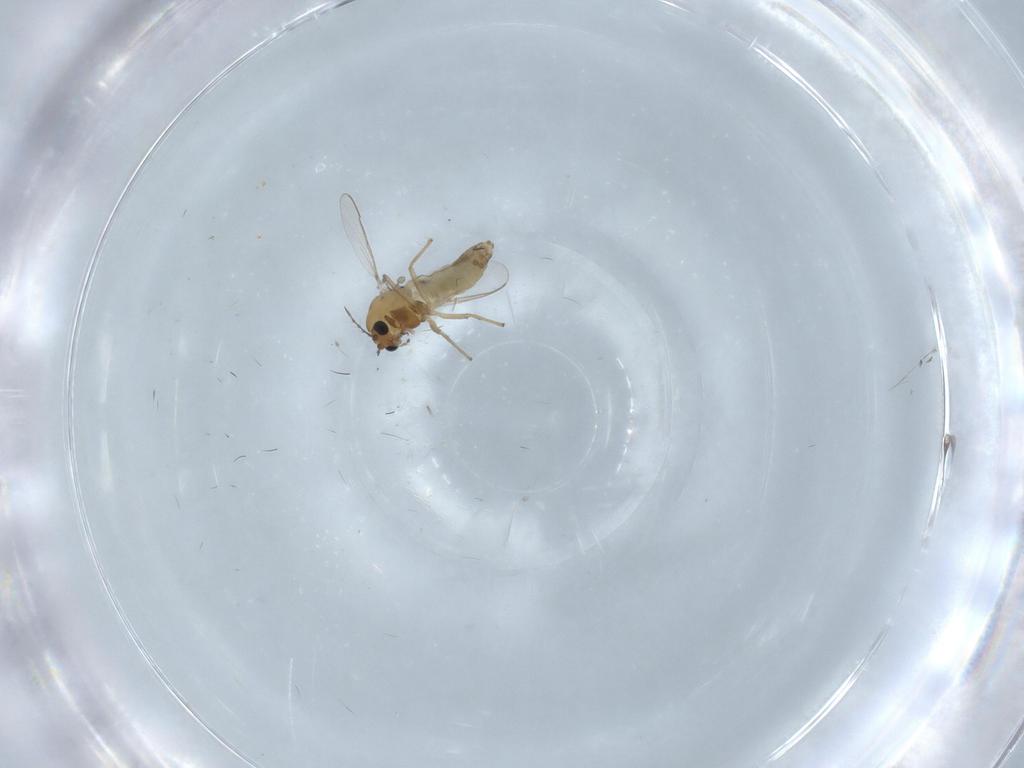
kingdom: Animalia
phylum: Arthropoda
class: Insecta
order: Diptera
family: Chironomidae
